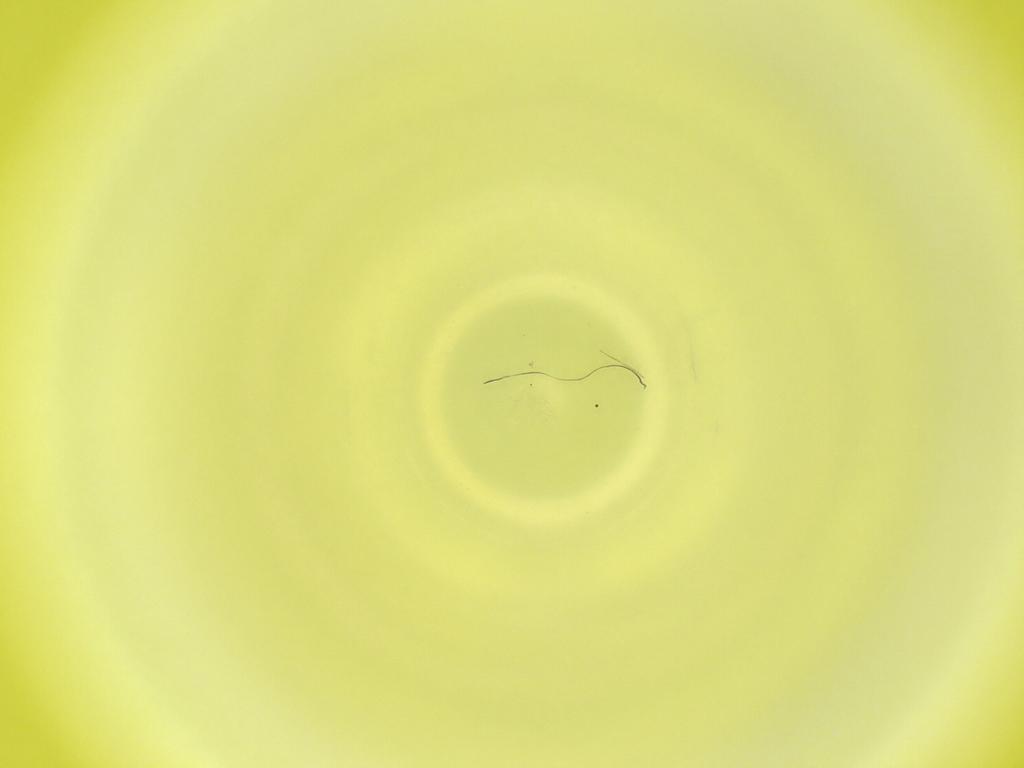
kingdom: Animalia
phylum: Arthropoda
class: Insecta
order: Diptera
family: Cecidomyiidae
